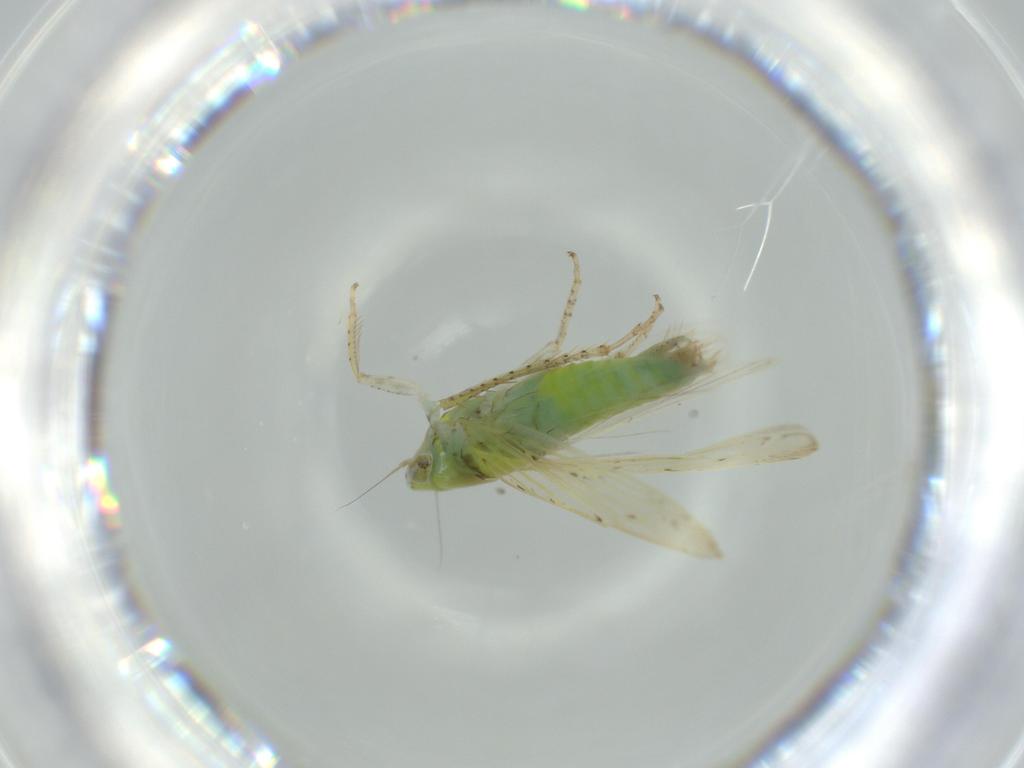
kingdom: Animalia
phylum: Arthropoda
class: Insecta
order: Hemiptera
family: Cicadellidae
